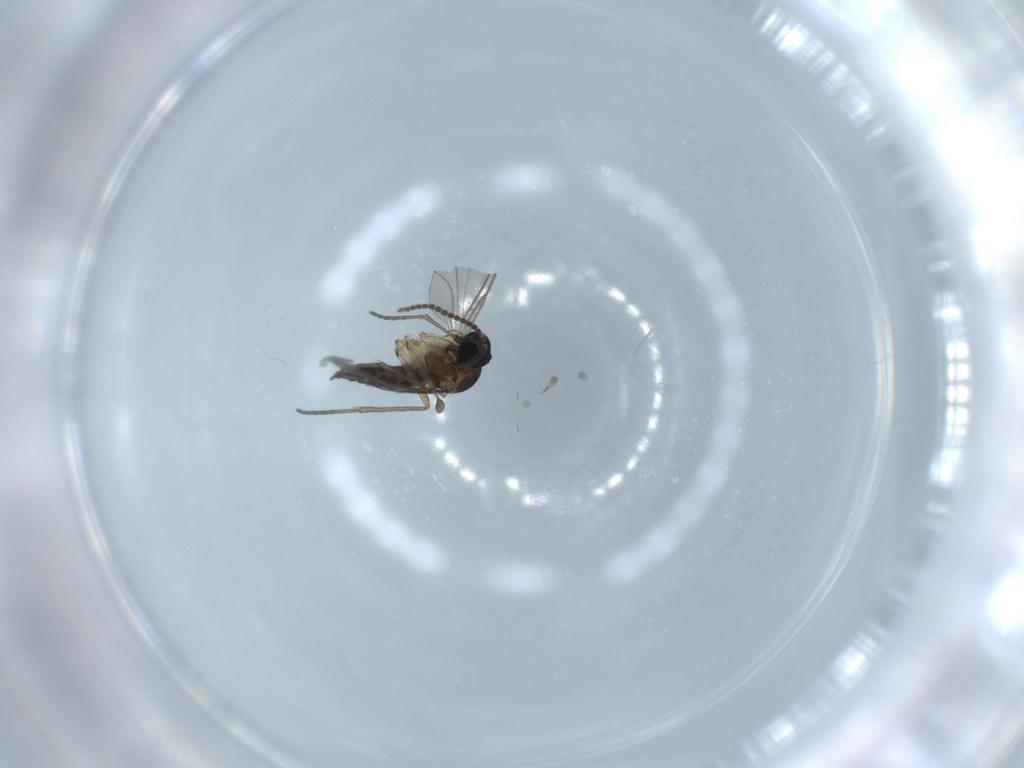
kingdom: Animalia
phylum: Arthropoda
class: Insecta
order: Diptera
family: Sciaridae
